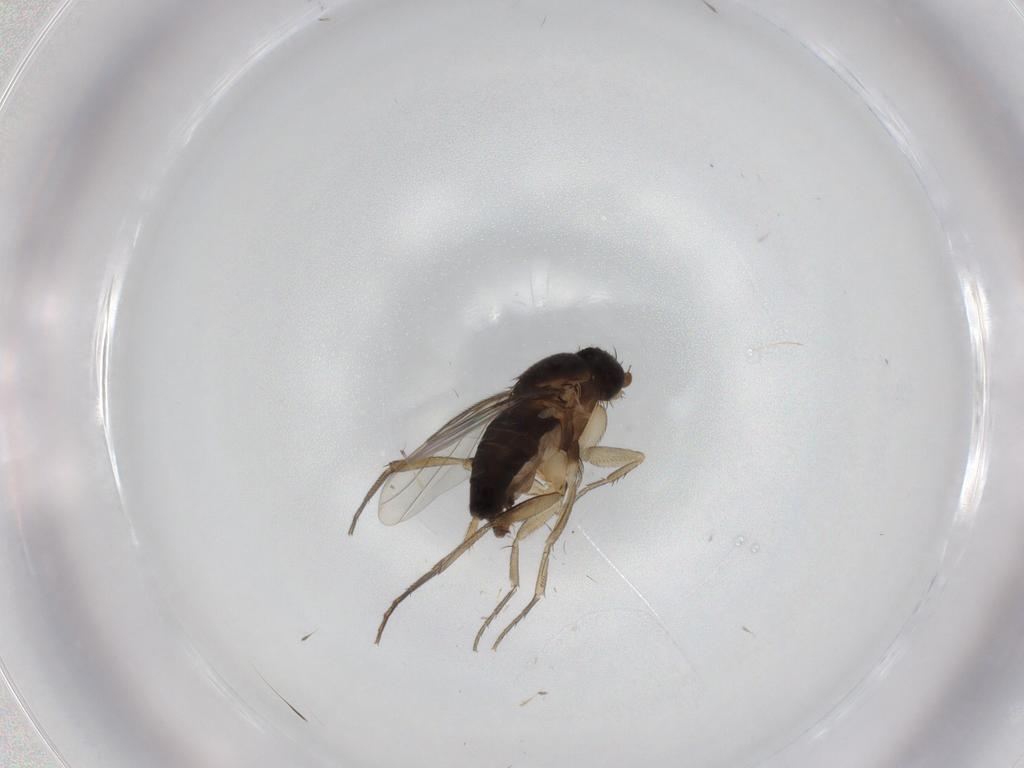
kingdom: Animalia
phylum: Arthropoda
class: Insecta
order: Diptera
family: Phoridae
